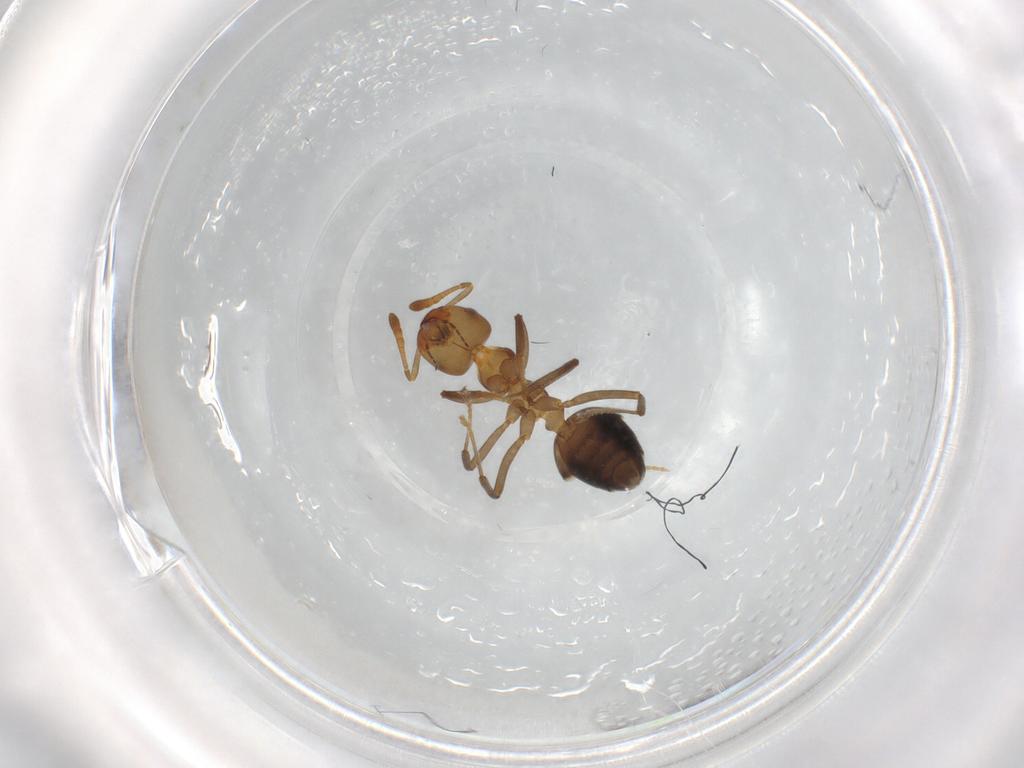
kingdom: Animalia
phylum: Arthropoda
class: Insecta
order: Hymenoptera
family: Formicidae
